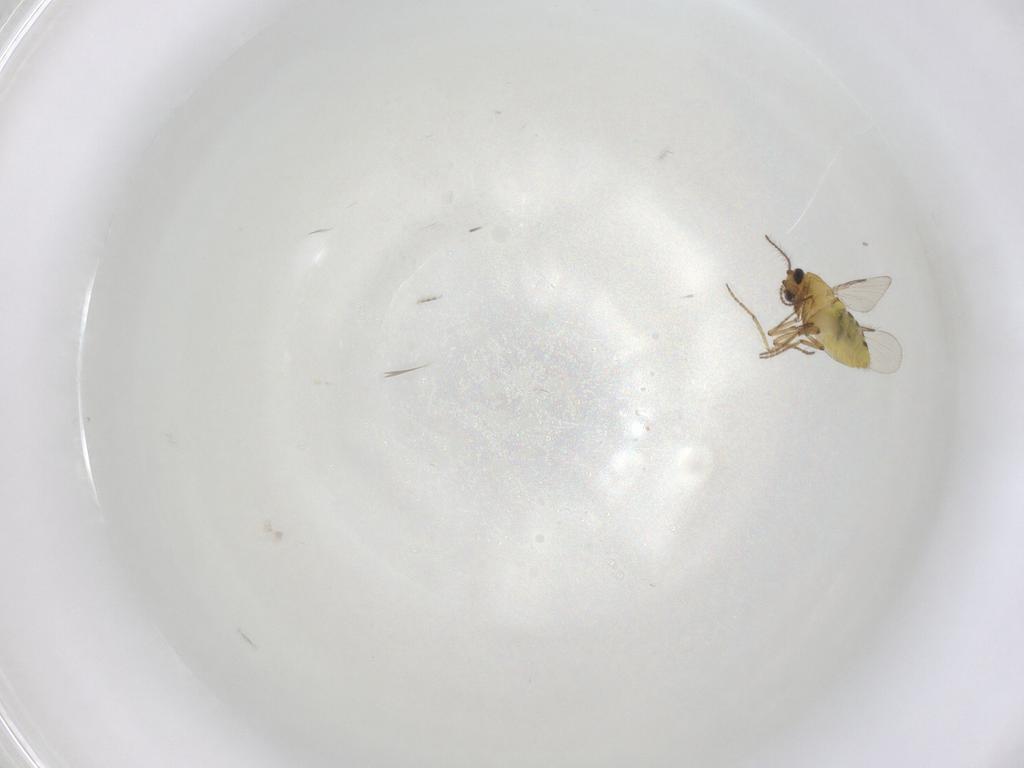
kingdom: Animalia
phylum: Arthropoda
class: Insecta
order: Diptera
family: Ceratopogonidae
